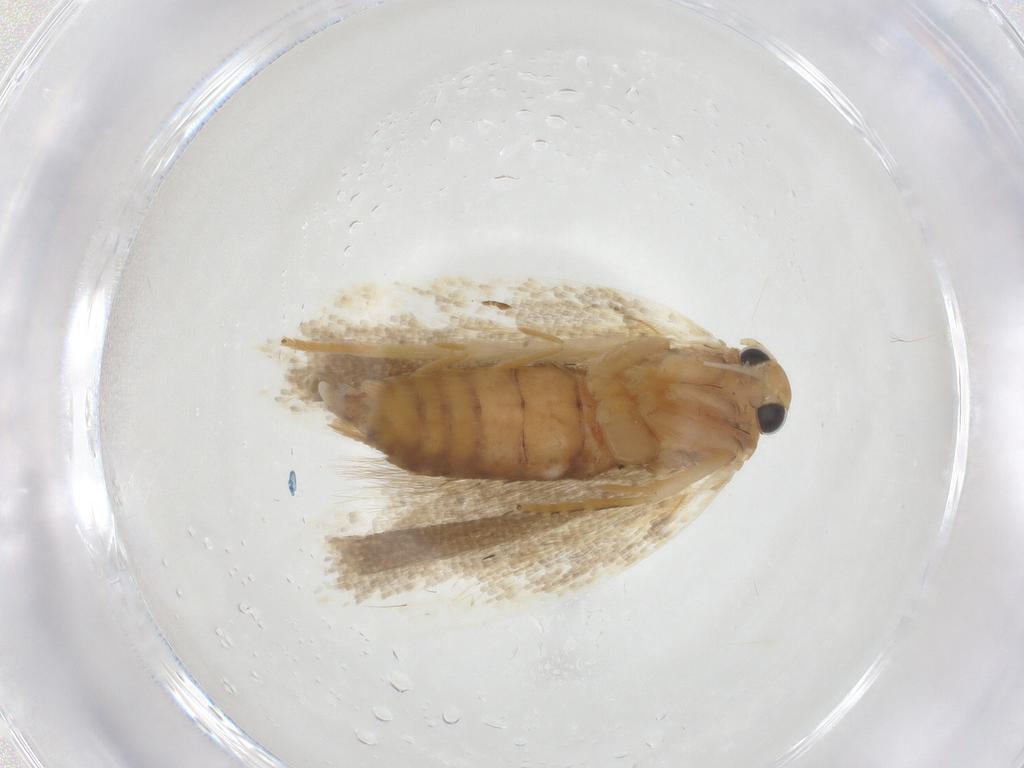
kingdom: Animalia
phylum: Arthropoda
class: Insecta
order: Lepidoptera
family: Peleopodidae
